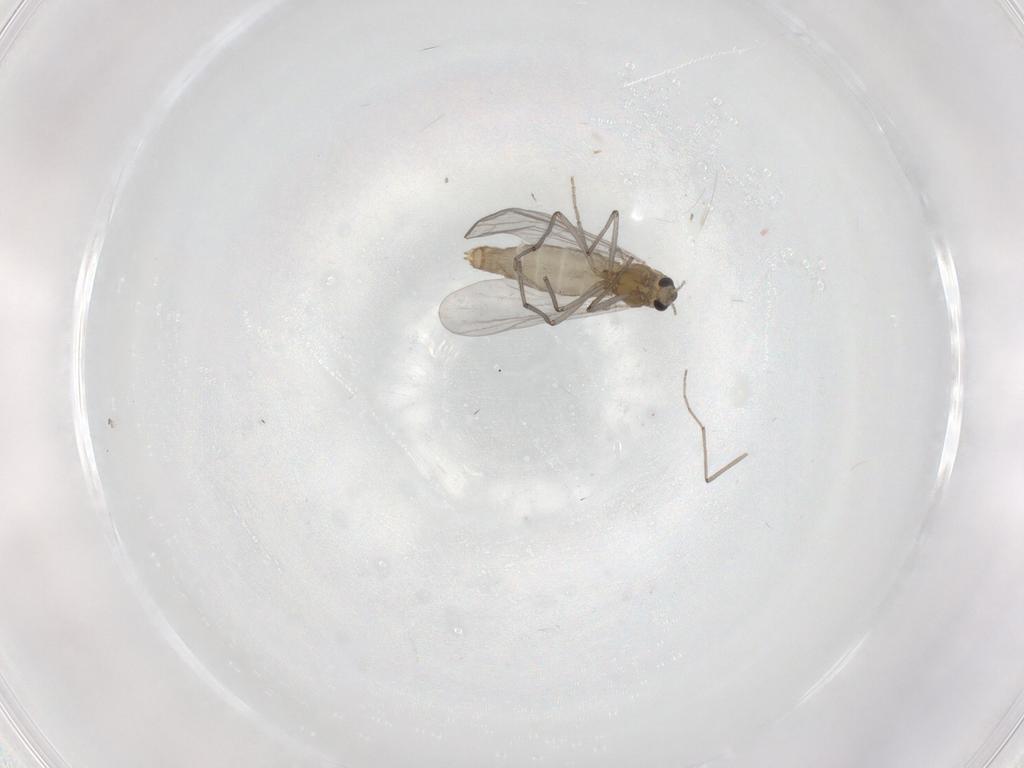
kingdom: Animalia
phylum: Arthropoda
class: Insecta
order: Diptera
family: Chironomidae
